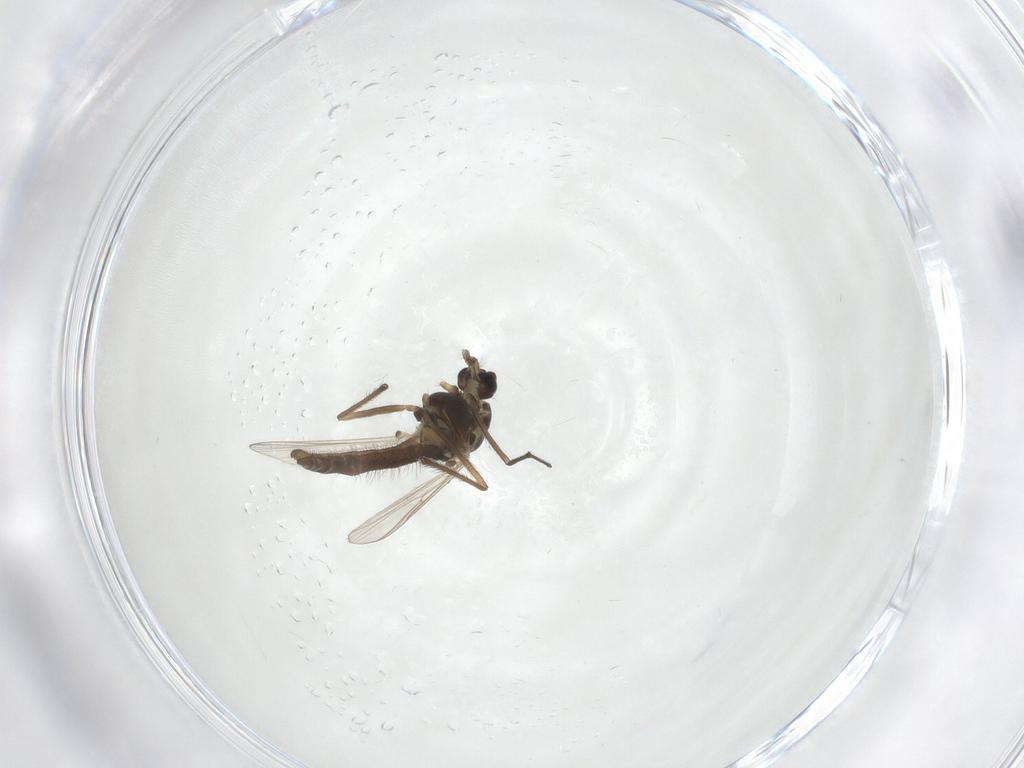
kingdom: Animalia
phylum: Arthropoda
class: Insecta
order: Diptera
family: Chironomidae
